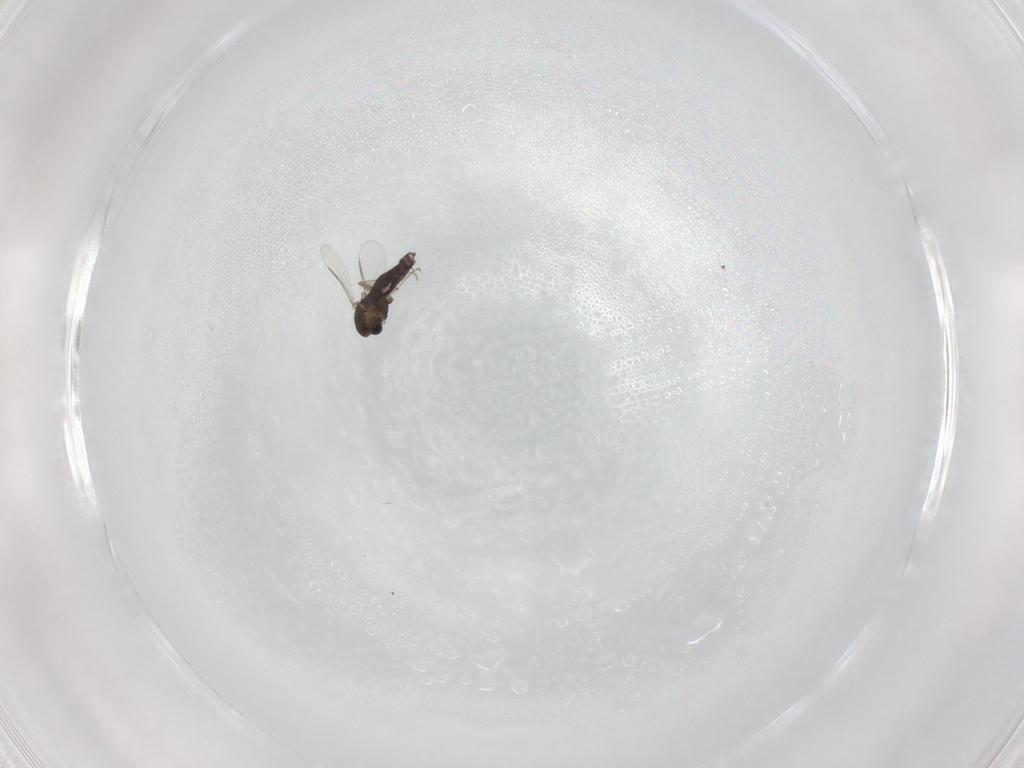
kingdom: Animalia
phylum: Arthropoda
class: Insecta
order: Diptera
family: Chironomidae
